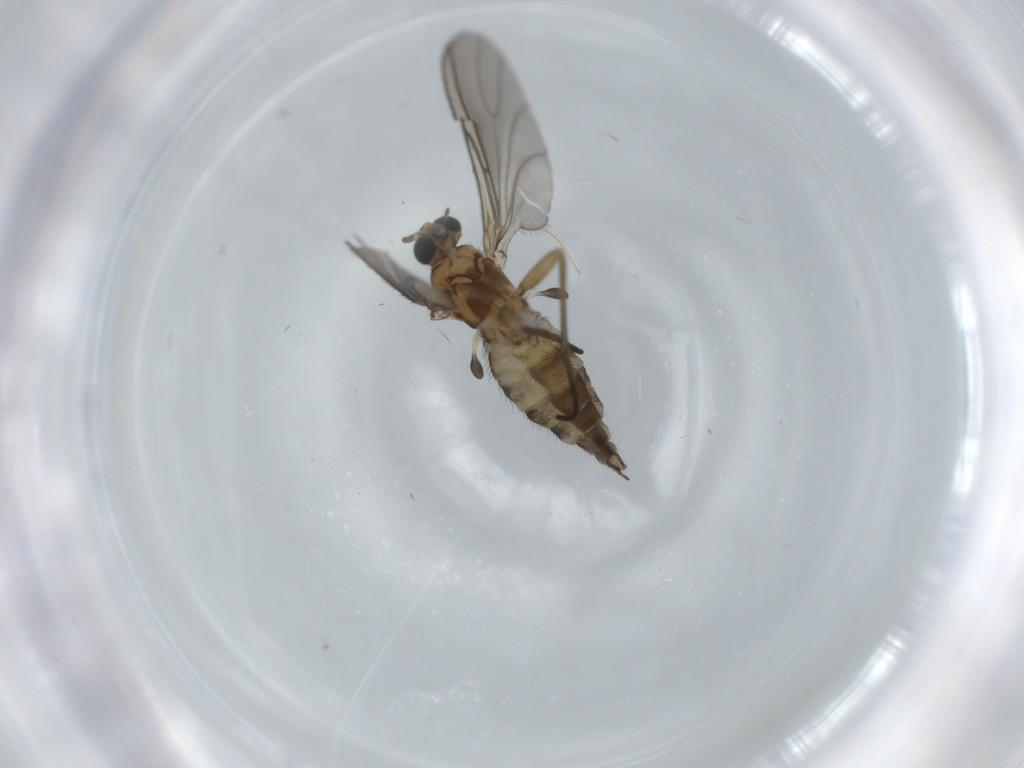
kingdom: Animalia
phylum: Arthropoda
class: Insecta
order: Diptera
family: Sciaridae
